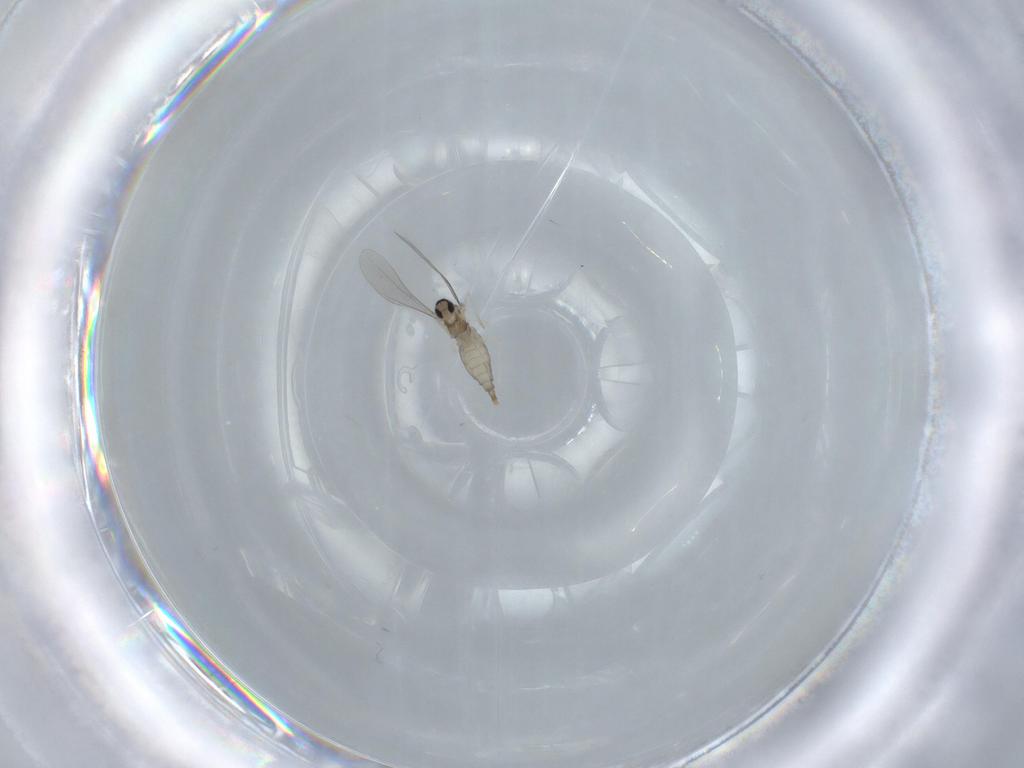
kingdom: Animalia
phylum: Arthropoda
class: Insecta
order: Diptera
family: Cecidomyiidae
